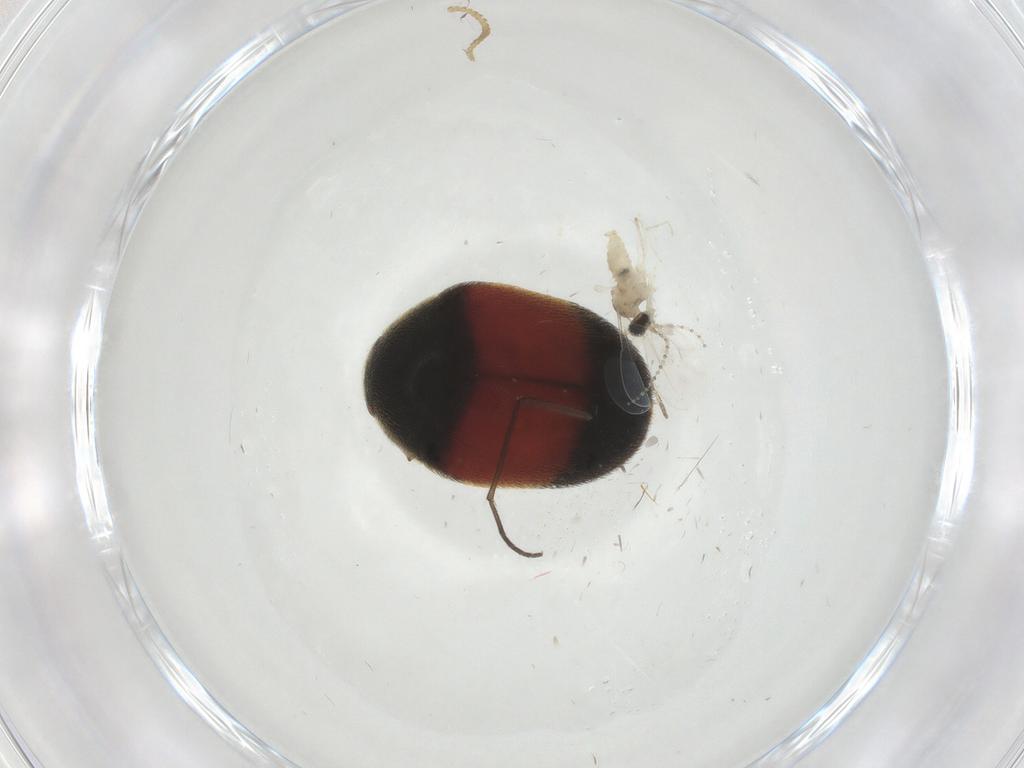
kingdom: Animalia
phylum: Arthropoda
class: Insecta
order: Coleoptera
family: Dermestidae
